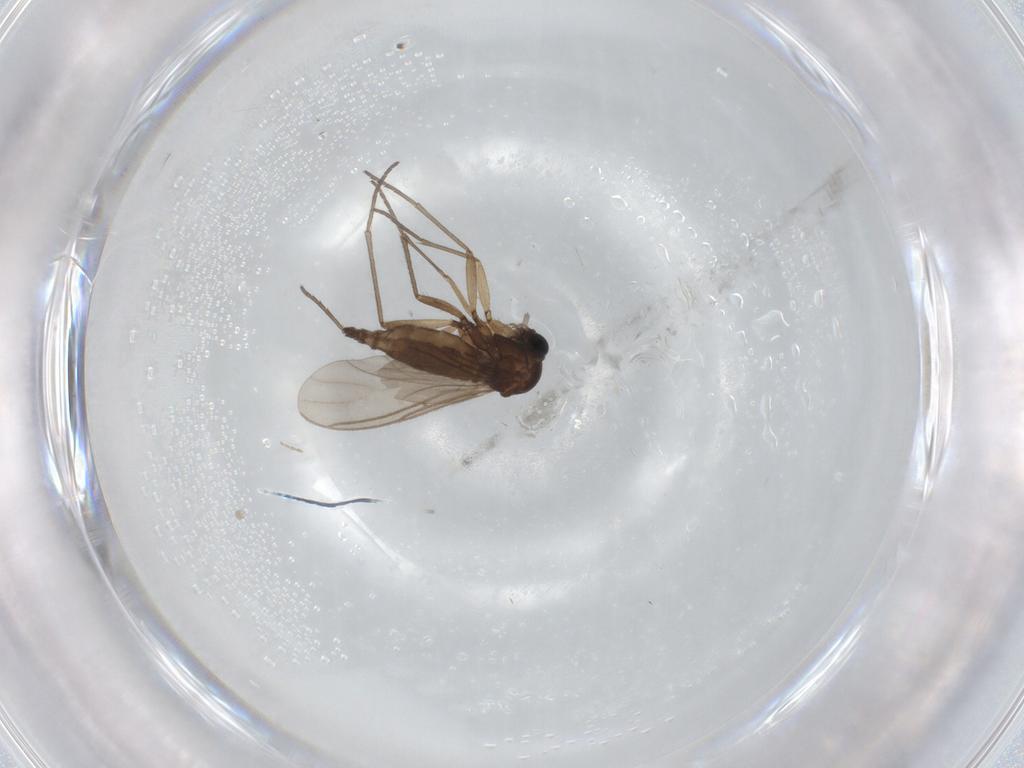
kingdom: Animalia
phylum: Arthropoda
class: Insecta
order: Diptera
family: Sciaridae
